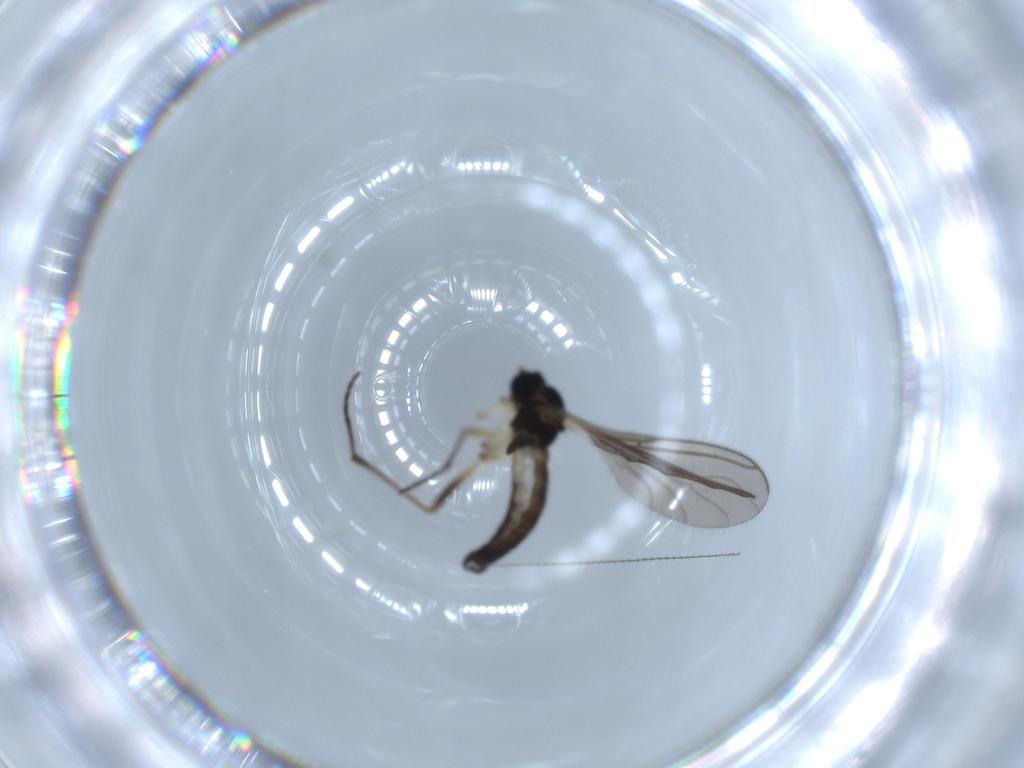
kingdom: Animalia
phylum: Arthropoda
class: Insecta
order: Diptera
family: Sciaridae
